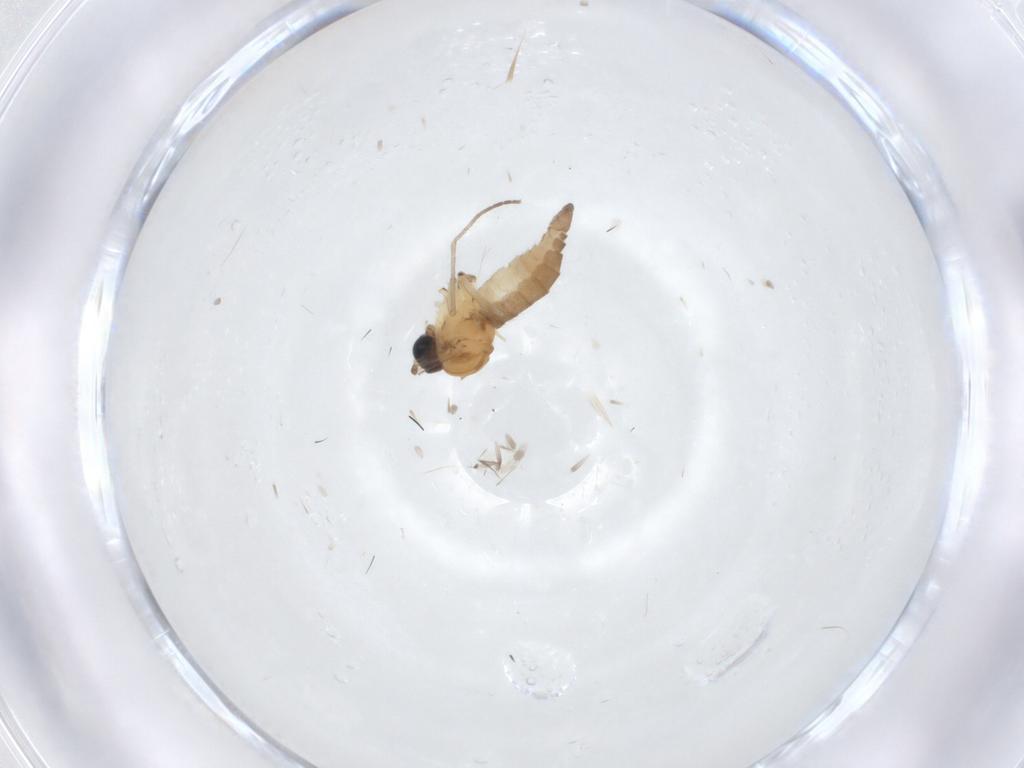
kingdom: Animalia
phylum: Arthropoda
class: Insecta
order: Diptera
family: Sciaridae
